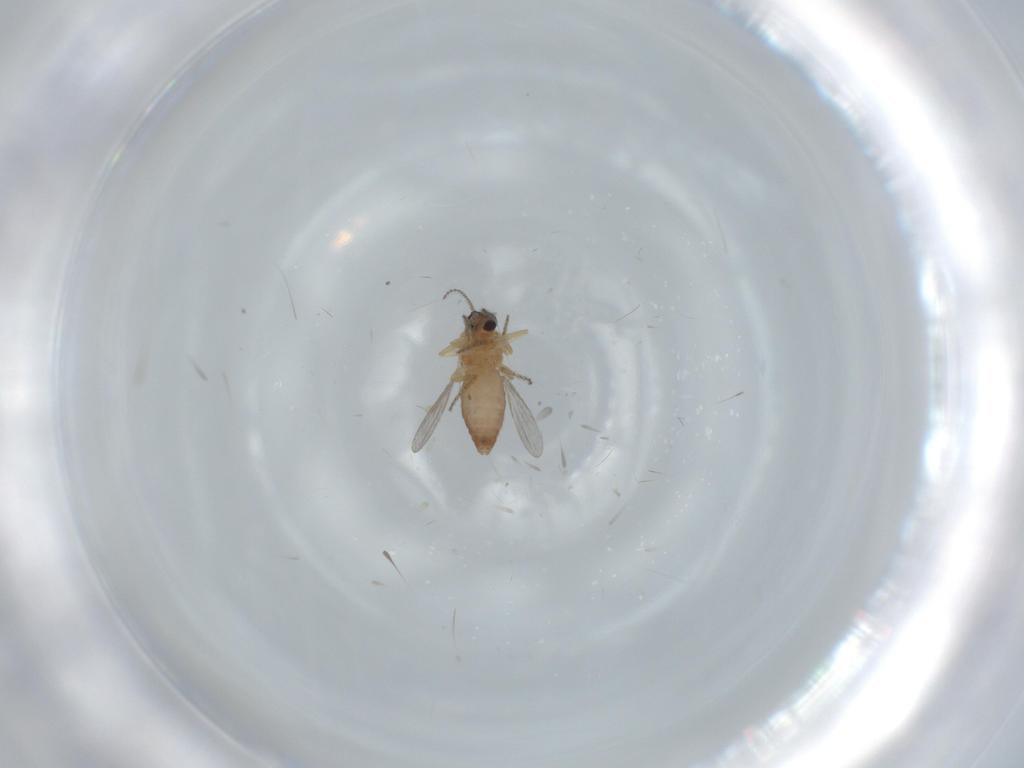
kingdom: Animalia
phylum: Arthropoda
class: Insecta
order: Diptera
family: Ceratopogonidae
